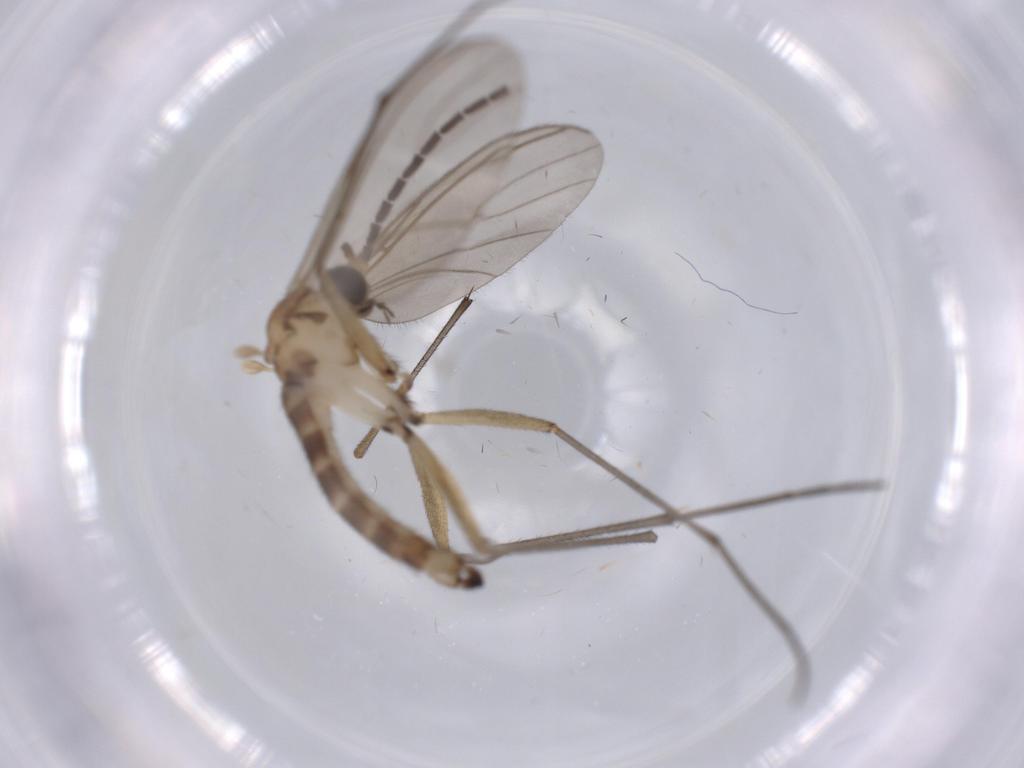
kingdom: Animalia
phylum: Arthropoda
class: Insecta
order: Diptera
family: Sciaridae
